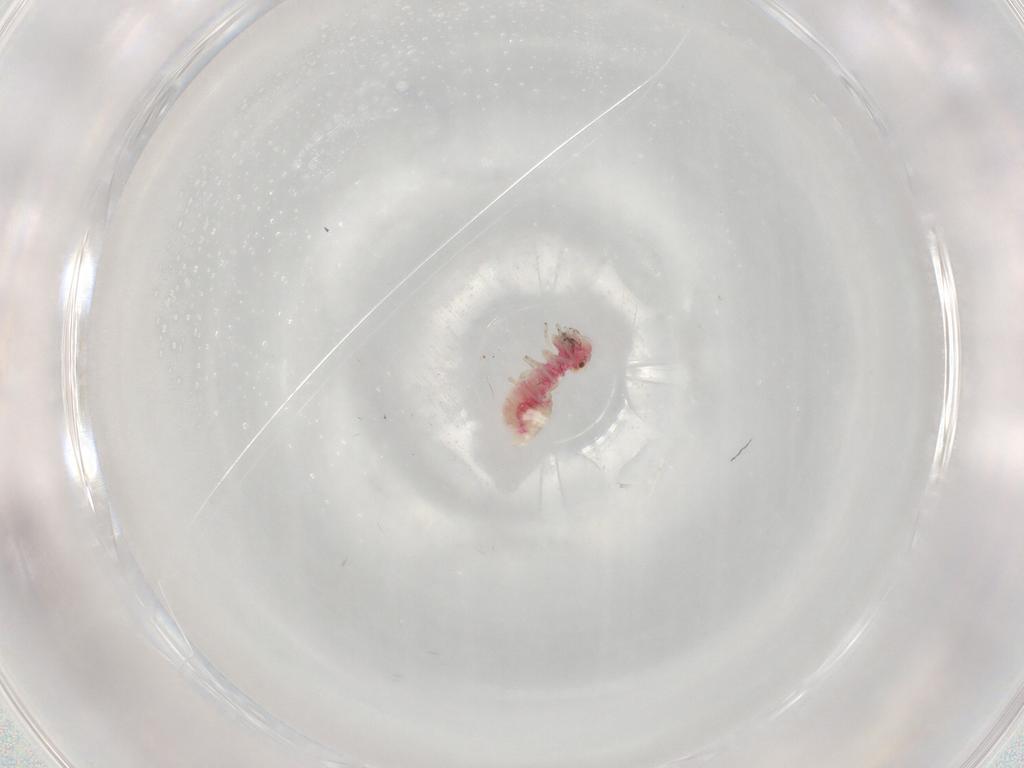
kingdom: Animalia
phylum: Arthropoda
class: Insecta
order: Psocodea
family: Caeciliusidae
